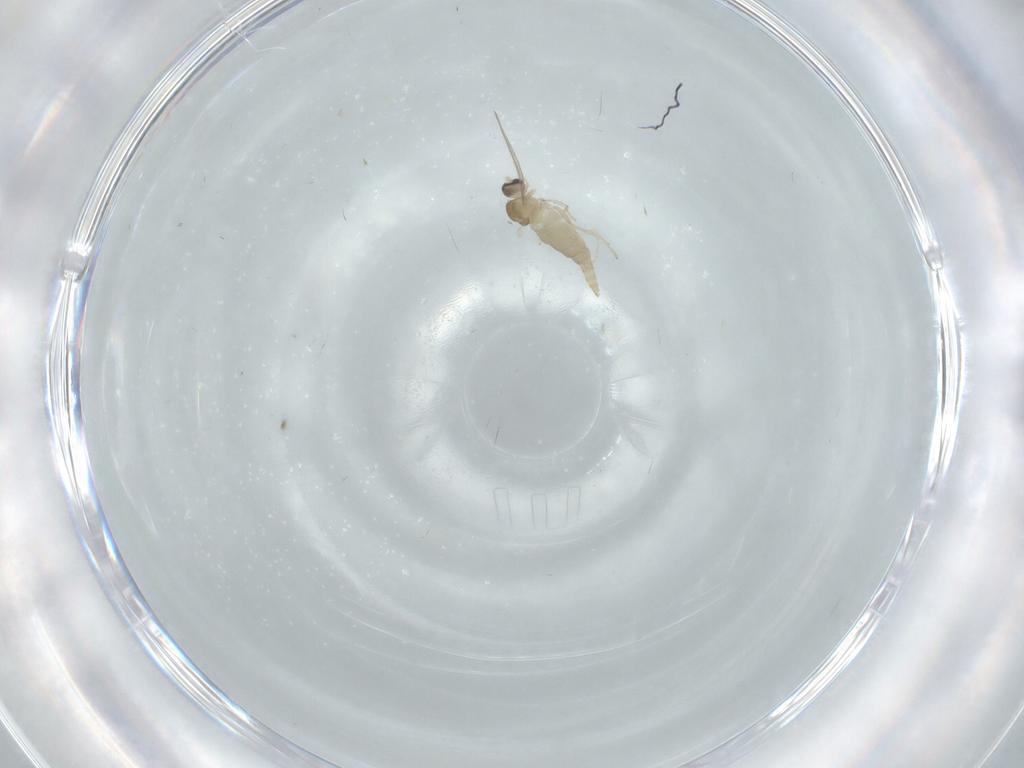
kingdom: Animalia
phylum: Arthropoda
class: Insecta
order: Diptera
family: Cecidomyiidae
